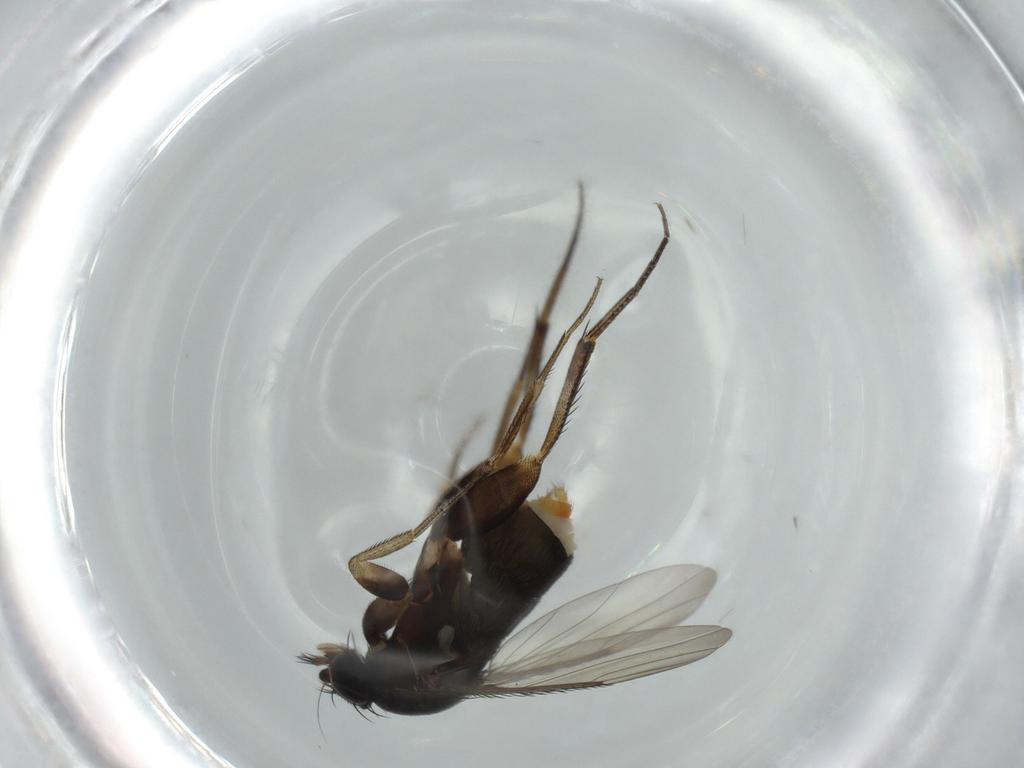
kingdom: Animalia
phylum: Arthropoda
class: Insecta
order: Diptera
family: Phoridae
